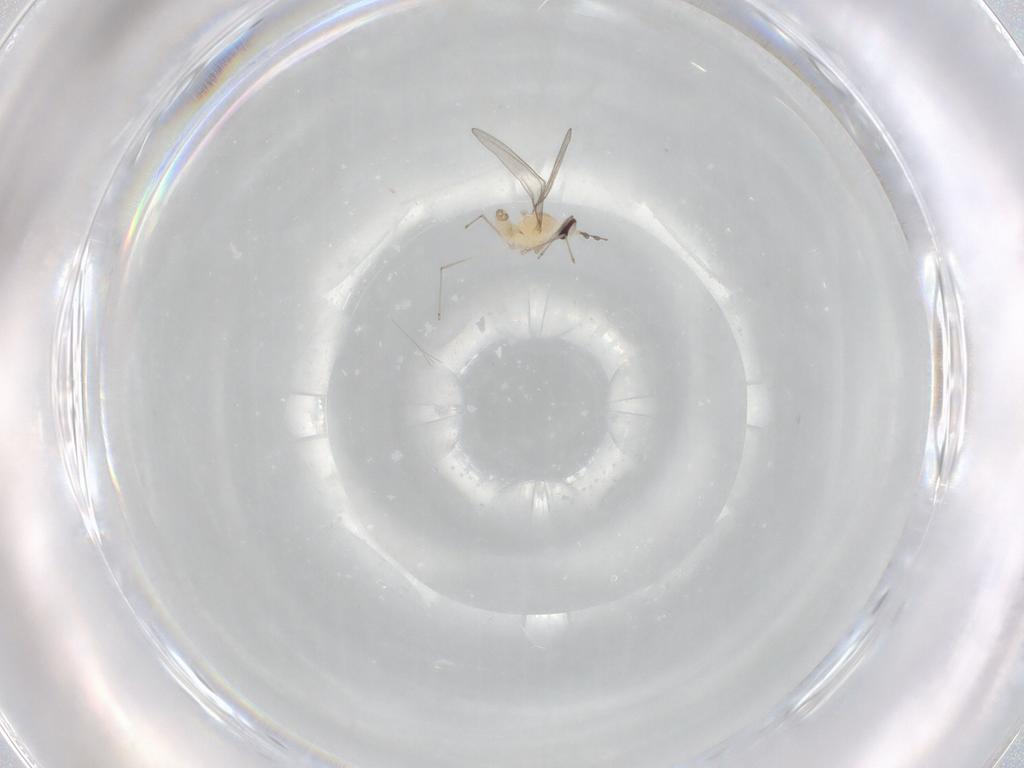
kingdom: Animalia
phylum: Arthropoda
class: Insecta
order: Diptera
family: Cecidomyiidae
